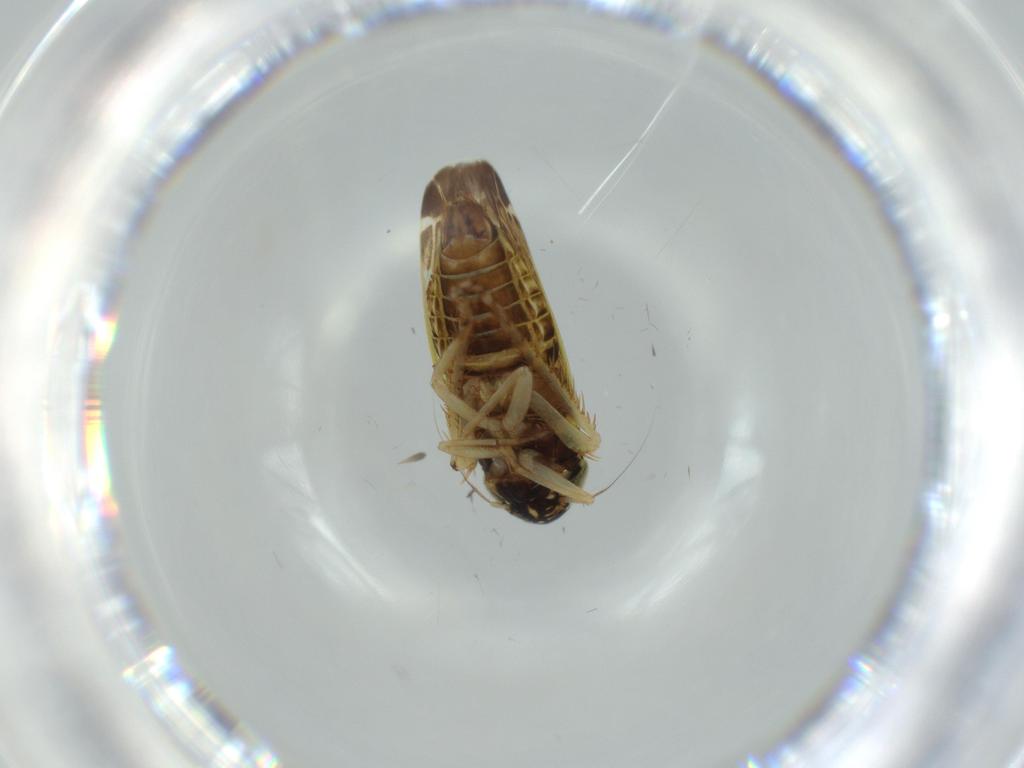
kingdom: Animalia
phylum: Arthropoda
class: Insecta
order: Hemiptera
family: Cicadellidae
